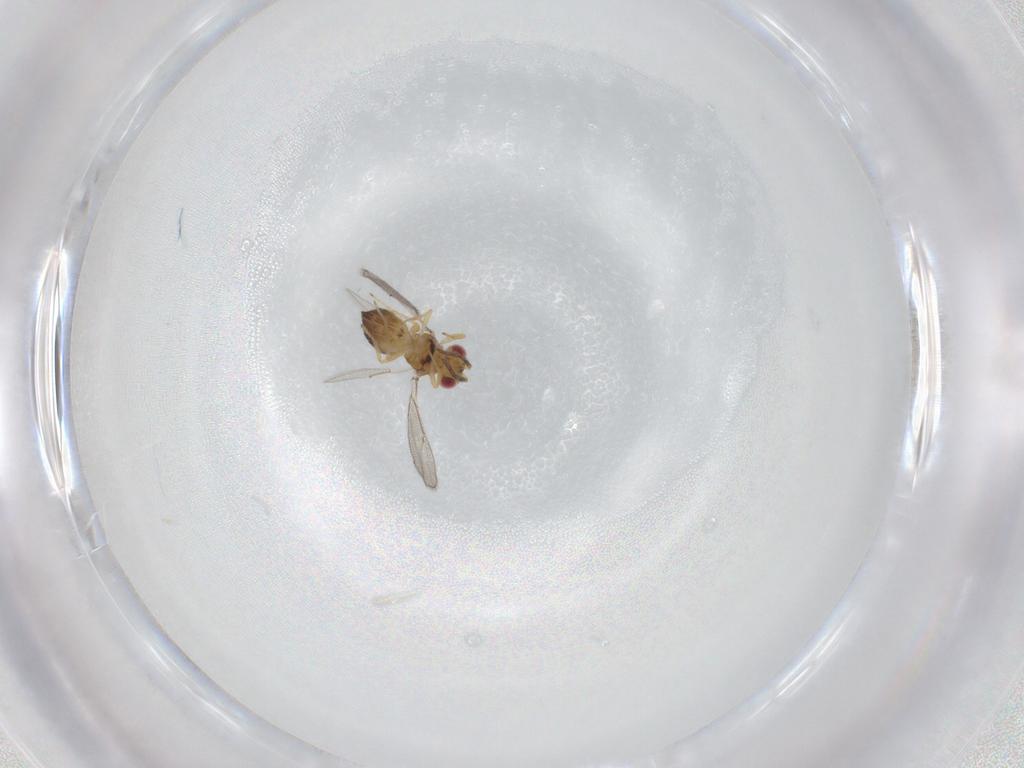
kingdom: Animalia
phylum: Arthropoda
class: Insecta
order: Hymenoptera
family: Eulophidae
